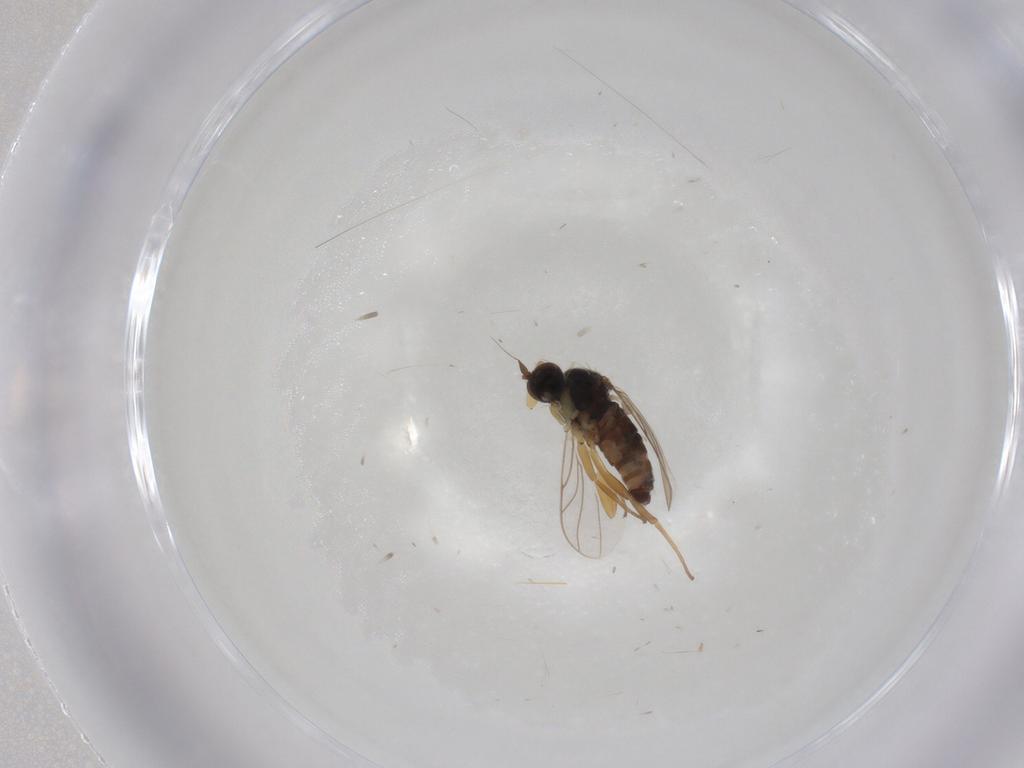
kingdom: Animalia
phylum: Arthropoda
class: Insecta
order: Diptera
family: Hybotidae
